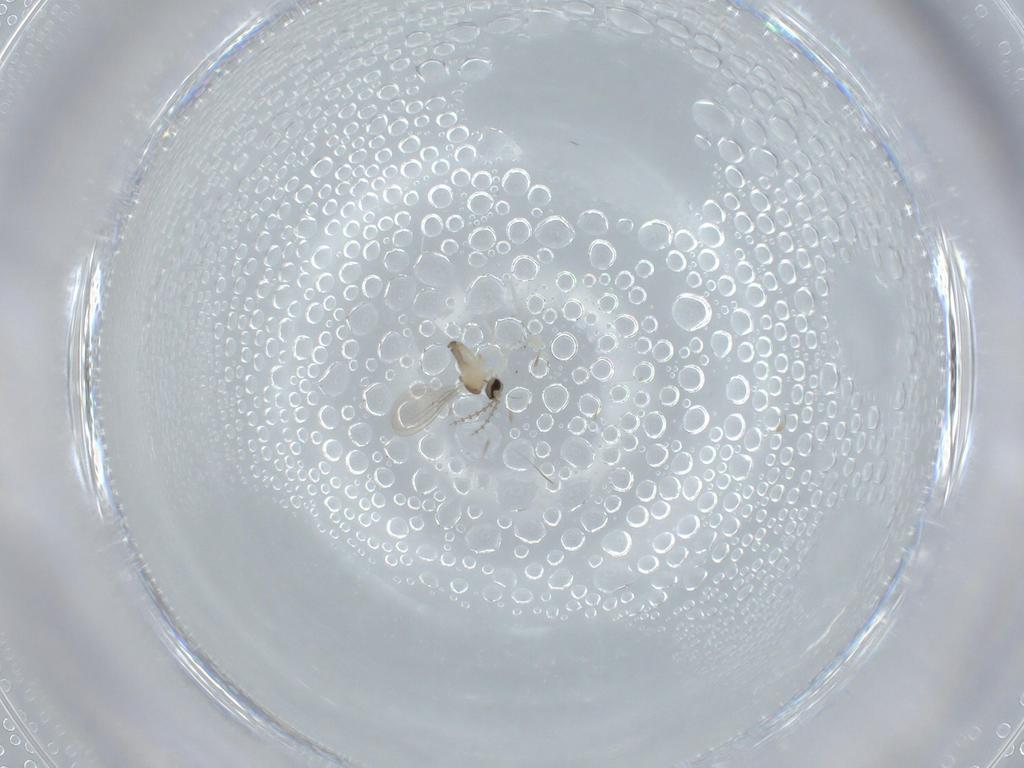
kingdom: Animalia
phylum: Arthropoda
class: Insecta
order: Diptera
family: Cecidomyiidae
